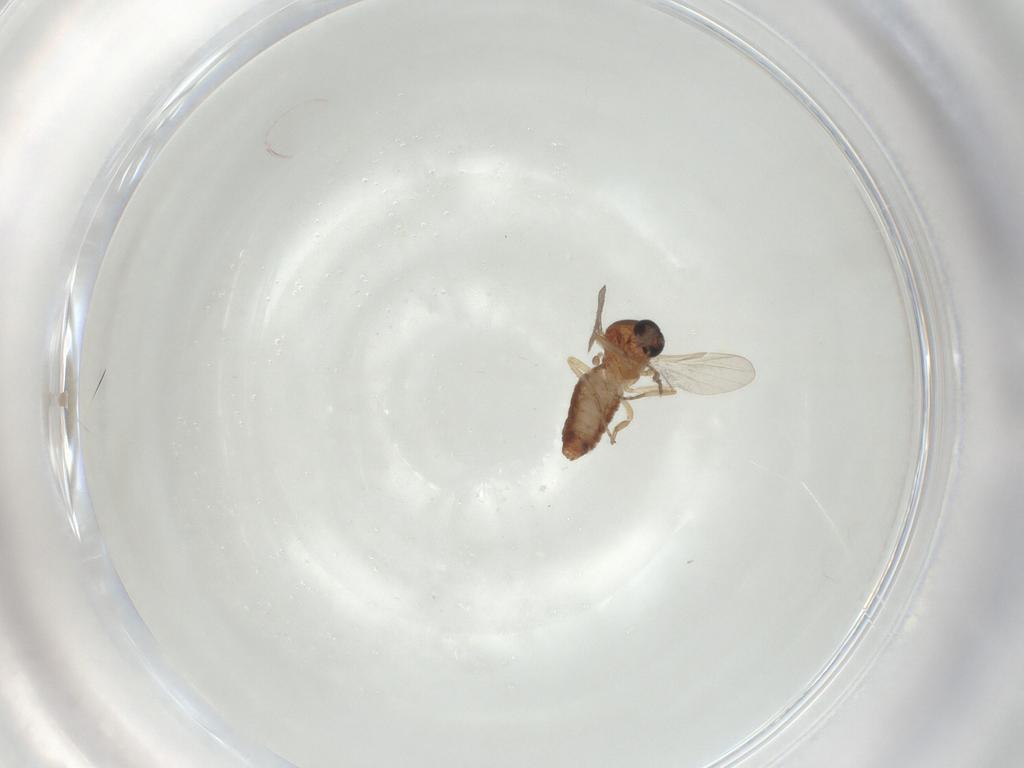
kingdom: Animalia
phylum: Arthropoda
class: Insecta
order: Diptera
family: Ceratopogonidae
